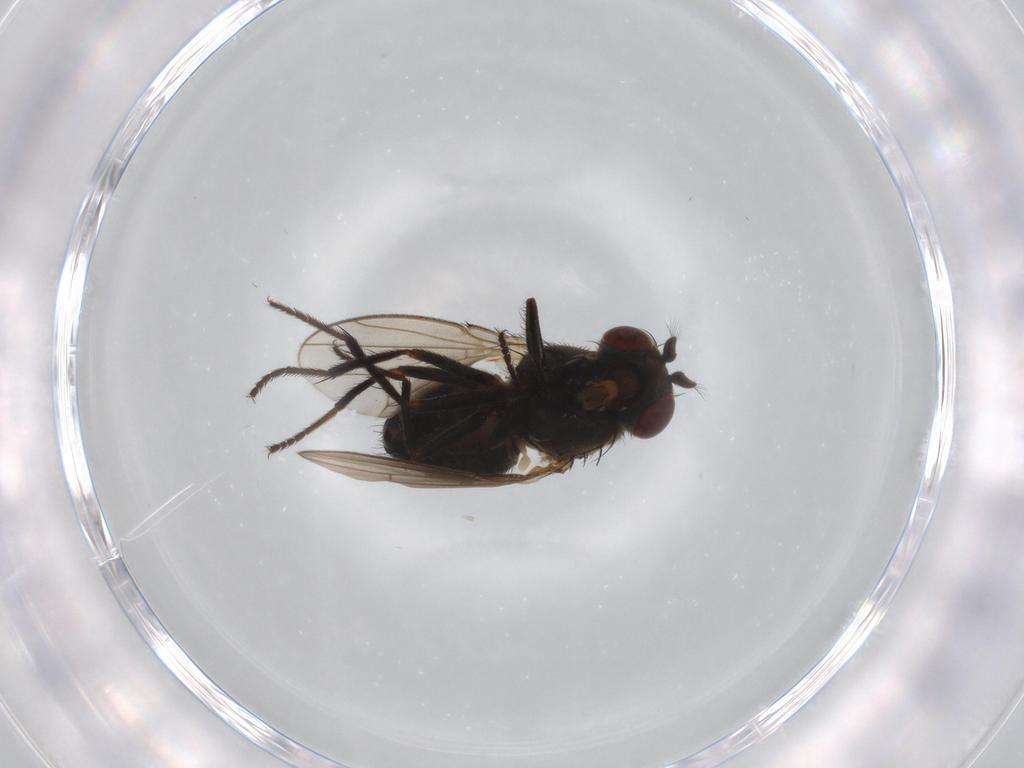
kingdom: Animalia
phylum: Arthropoda
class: Insecta
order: Diptera
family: Ephydridae
